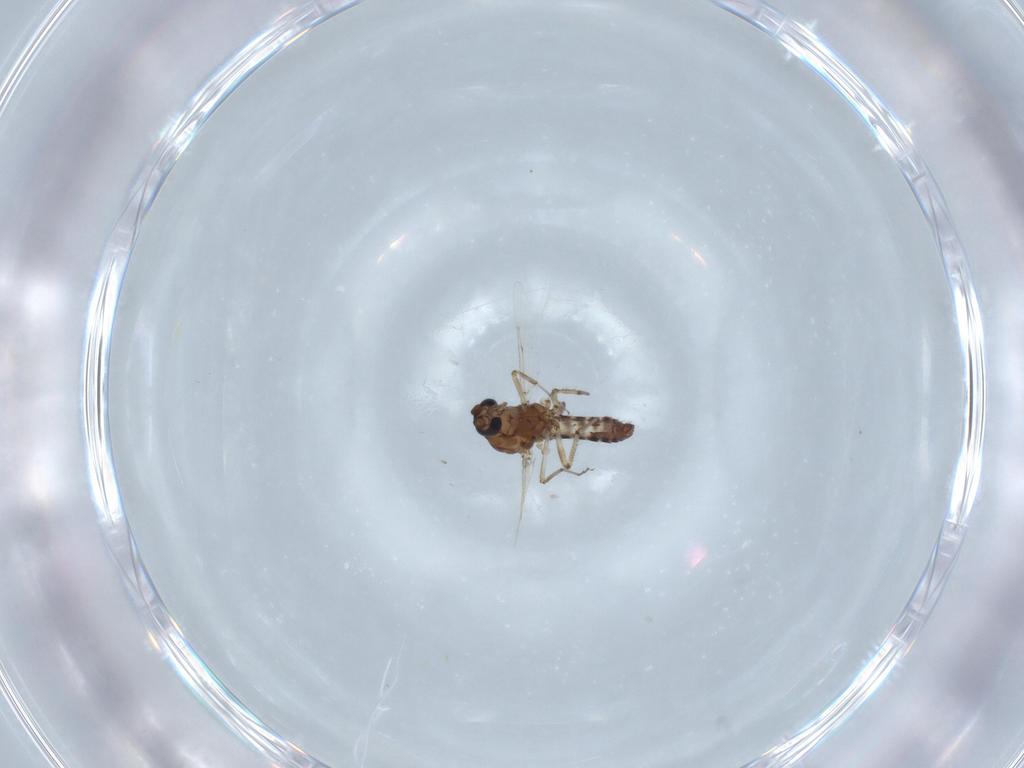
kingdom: Animalia
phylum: Arthropoda
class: Insecta
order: Diptera
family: Ceratopogonidae
